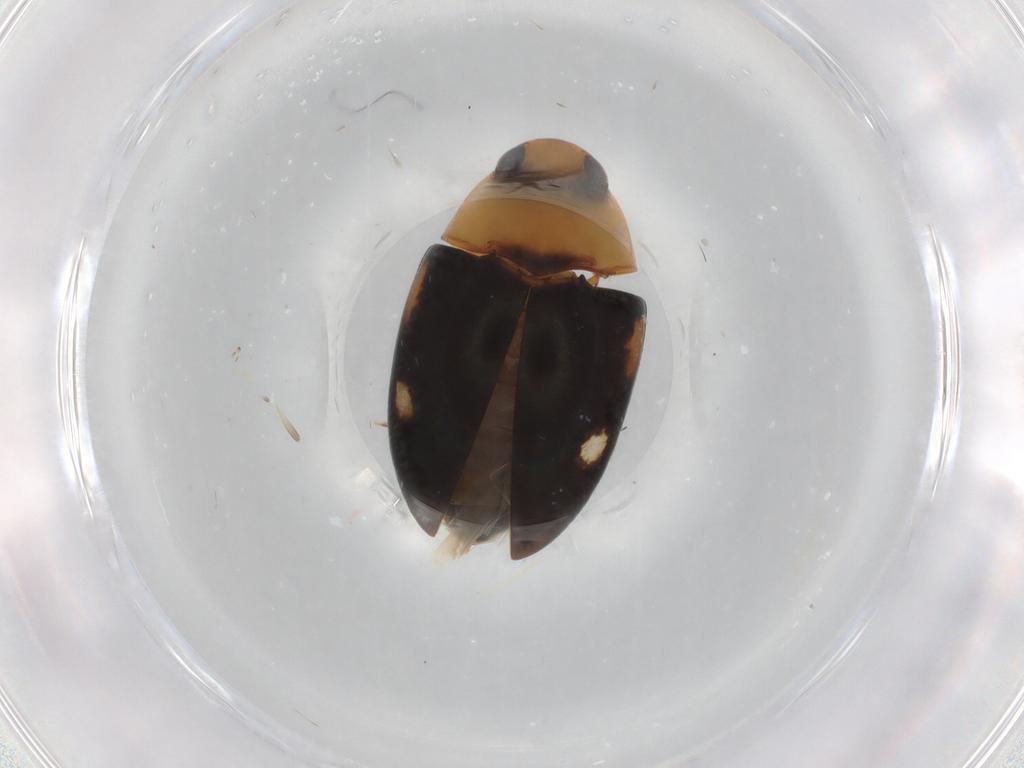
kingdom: Animalia
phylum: Arthropoda
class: Insecta
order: Coleoptera
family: Noteridae
